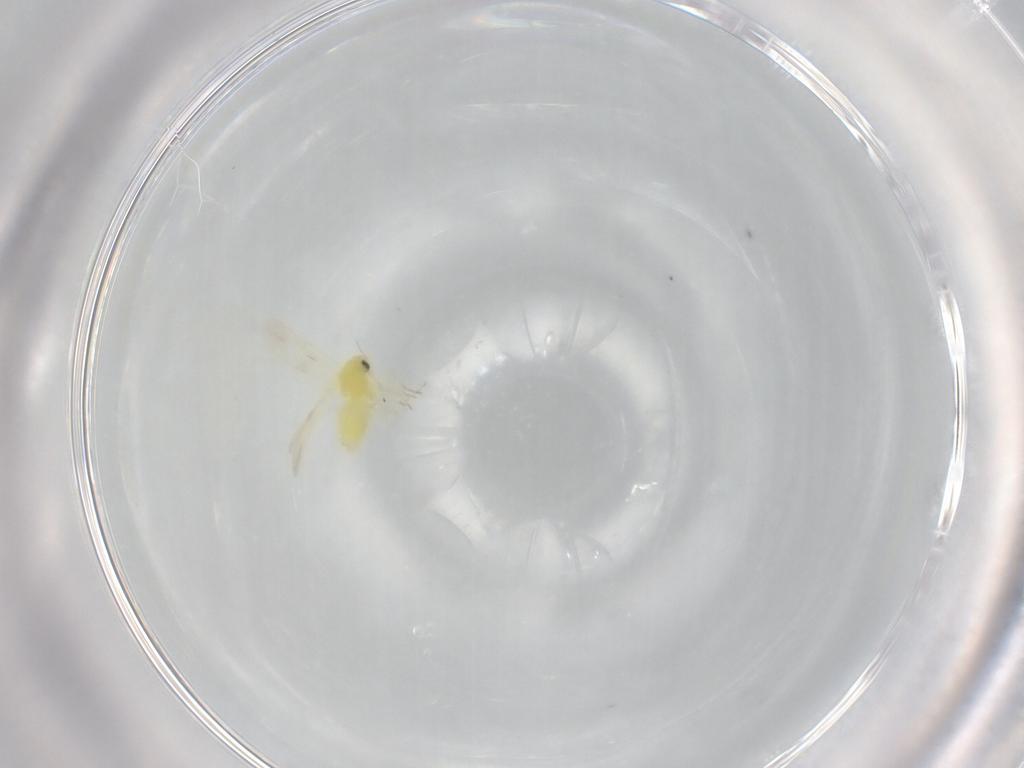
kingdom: Animalia
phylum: Arthropoda
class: Insecta
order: Hemiptera
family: Aleyrodidae
